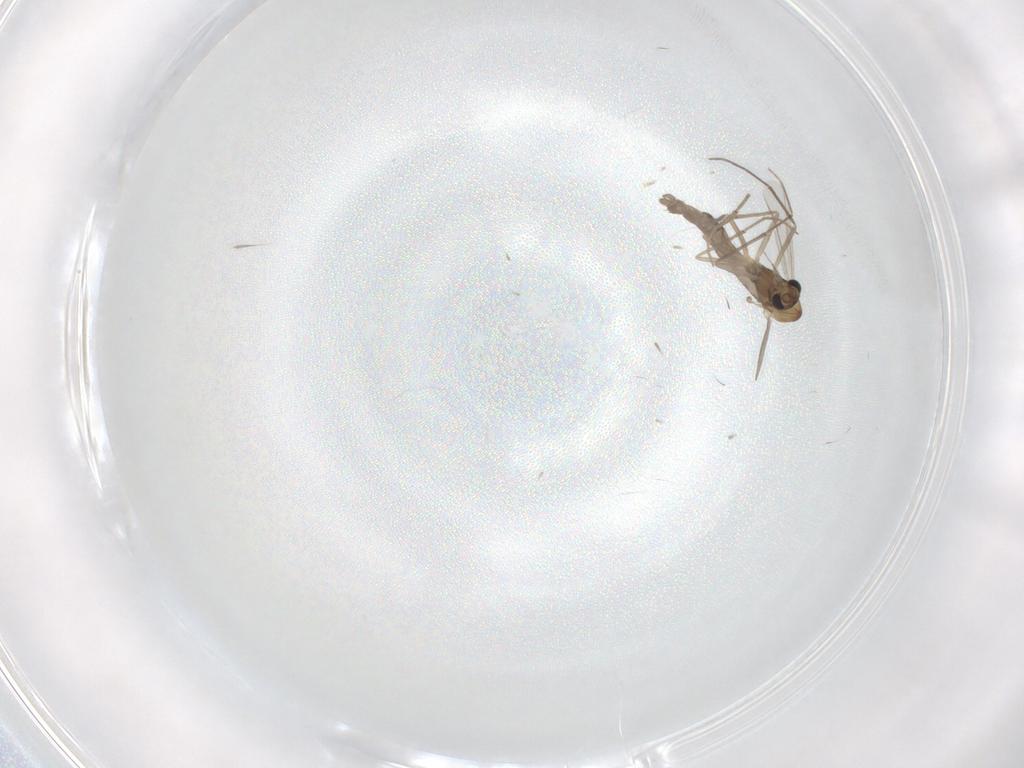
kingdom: Animalia
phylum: Arthropoda
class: Insecta
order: Diptera
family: Chironomidae
